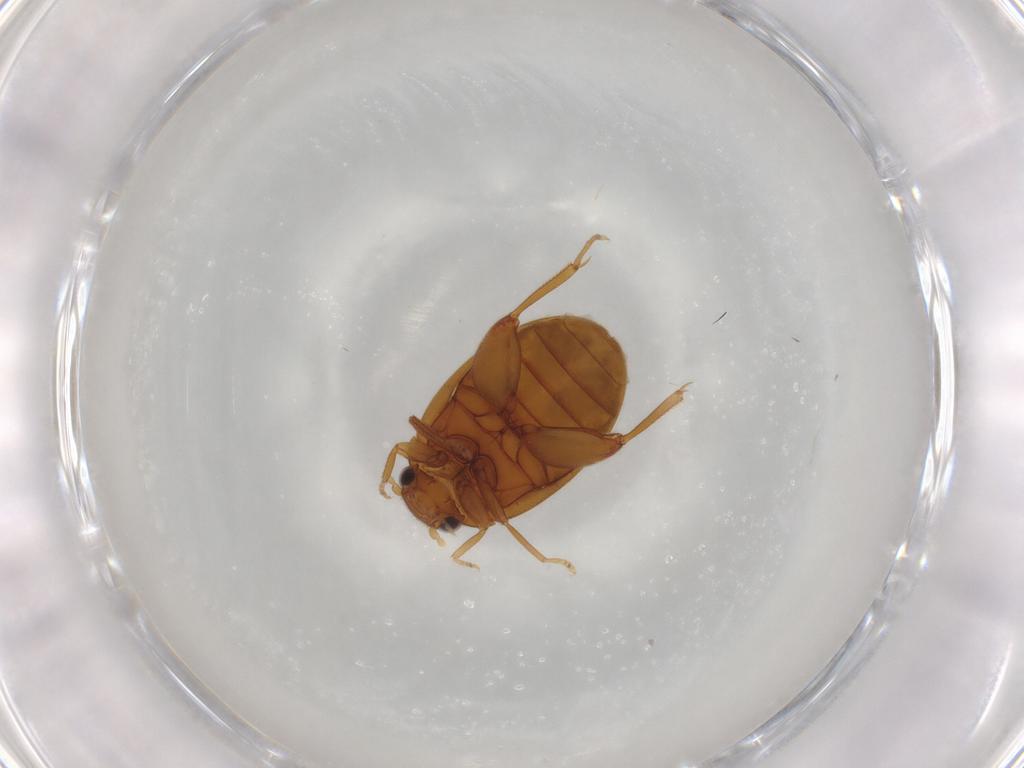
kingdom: Animalia
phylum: Arthropoda
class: Insecta
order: Coleoptera
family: Scirtidae
